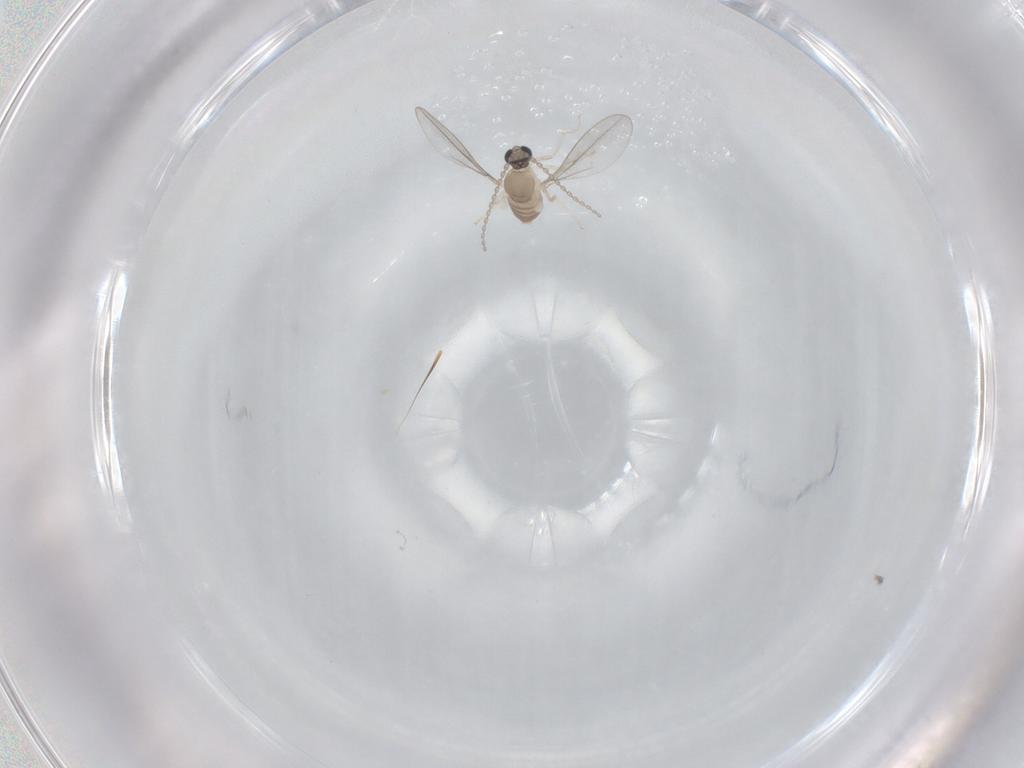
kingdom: Animalia
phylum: Arthropoda
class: Insecta
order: Diptera
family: Cecidomyiidae
